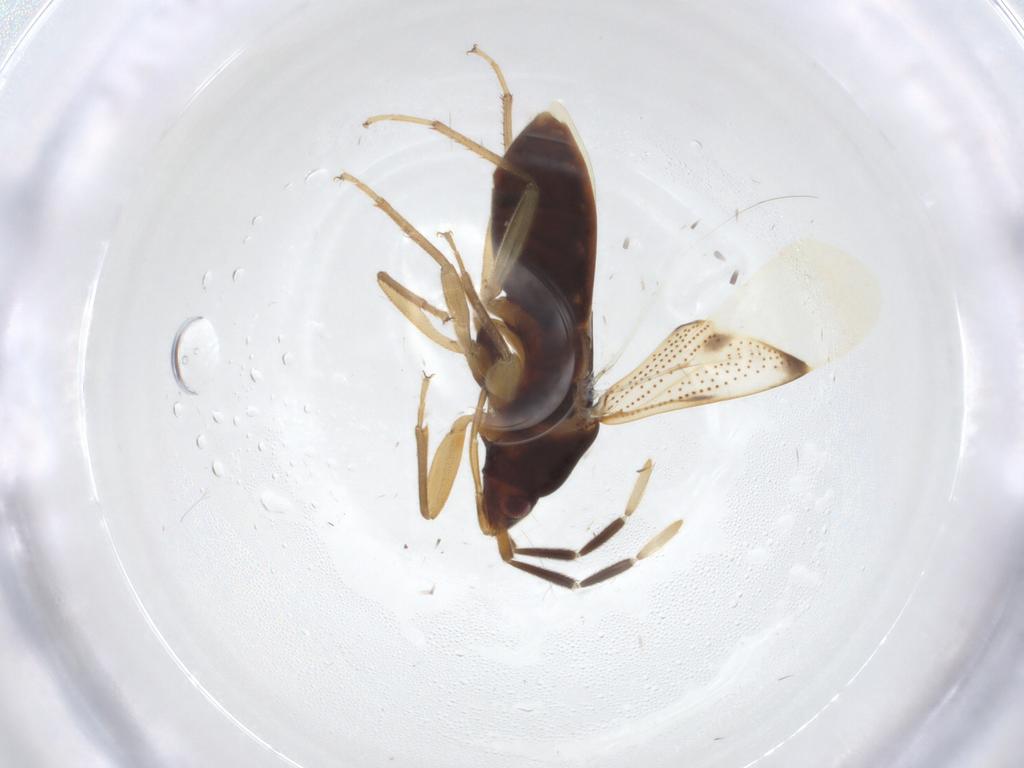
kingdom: Animalia
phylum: Arthropoda
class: Insecta
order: Hemiptera
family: Rhyparochromidae
